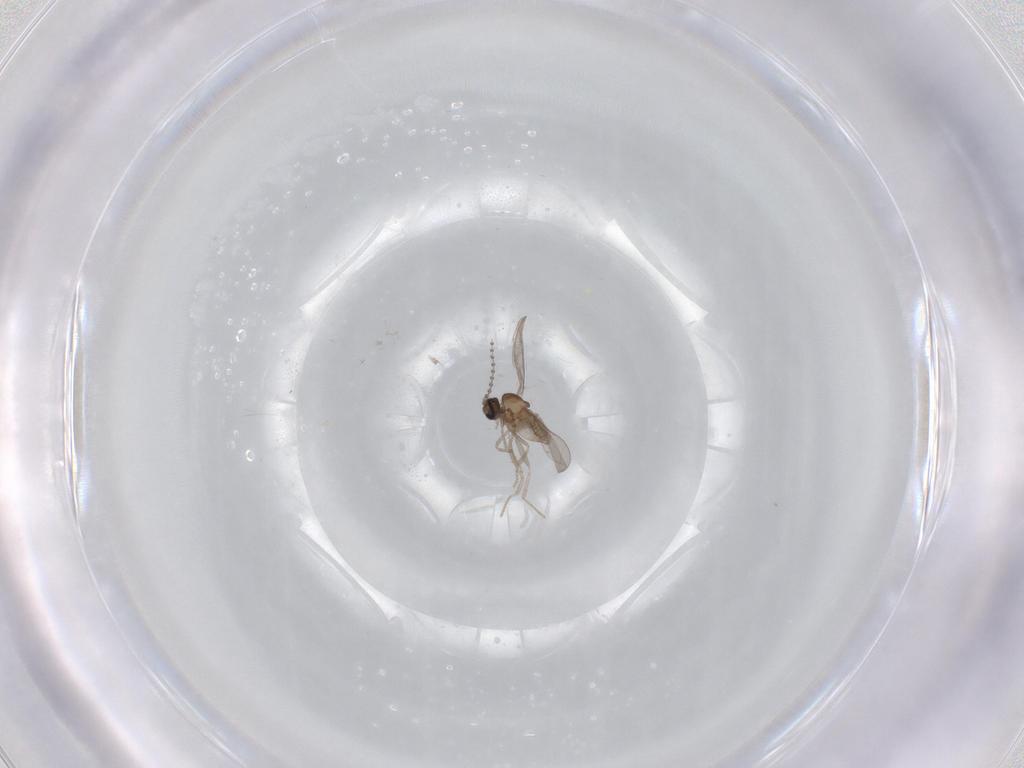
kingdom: Animalia
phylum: Arthropoda
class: Insecta
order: Diptera
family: Cecidomyiidae
